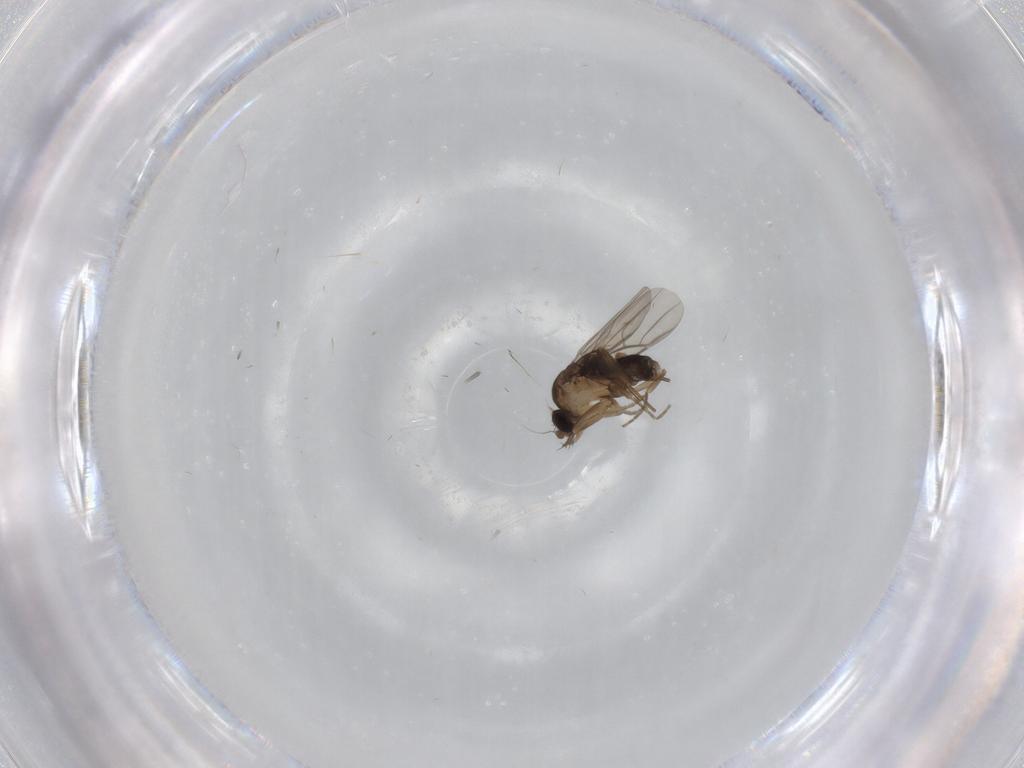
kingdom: Animalia
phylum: Arthropoda
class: Insecta
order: Diptera
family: Phoridae
